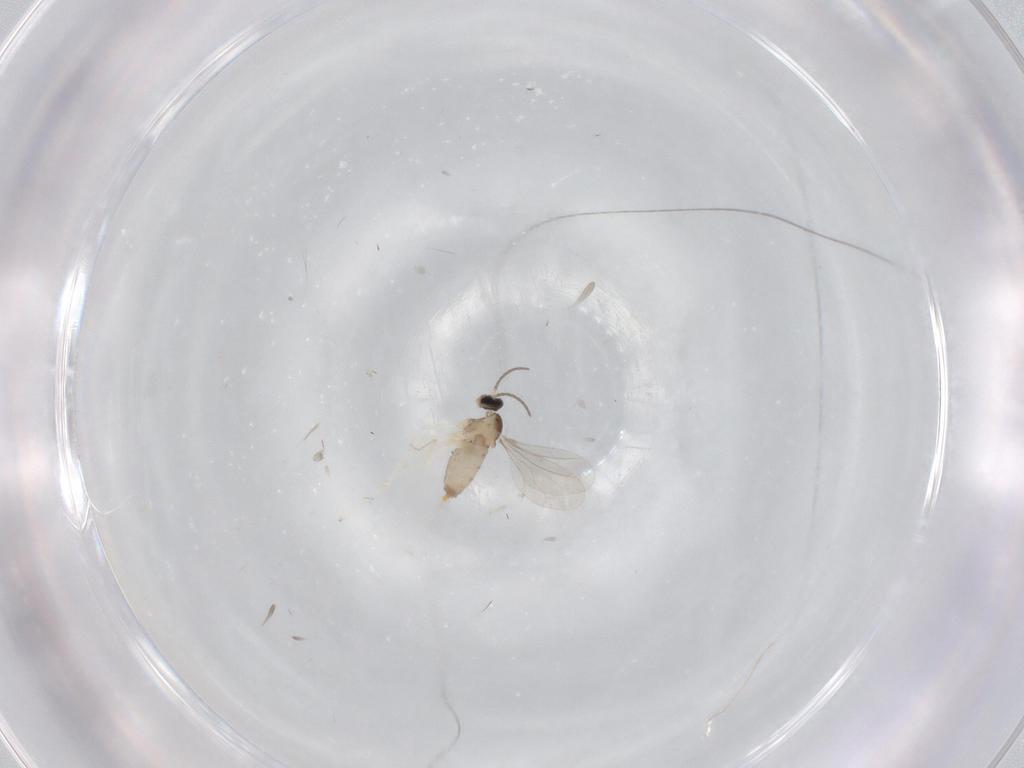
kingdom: Animalia
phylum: Arthropoda
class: Insecta
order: Diptera
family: Cecidomyiidae
